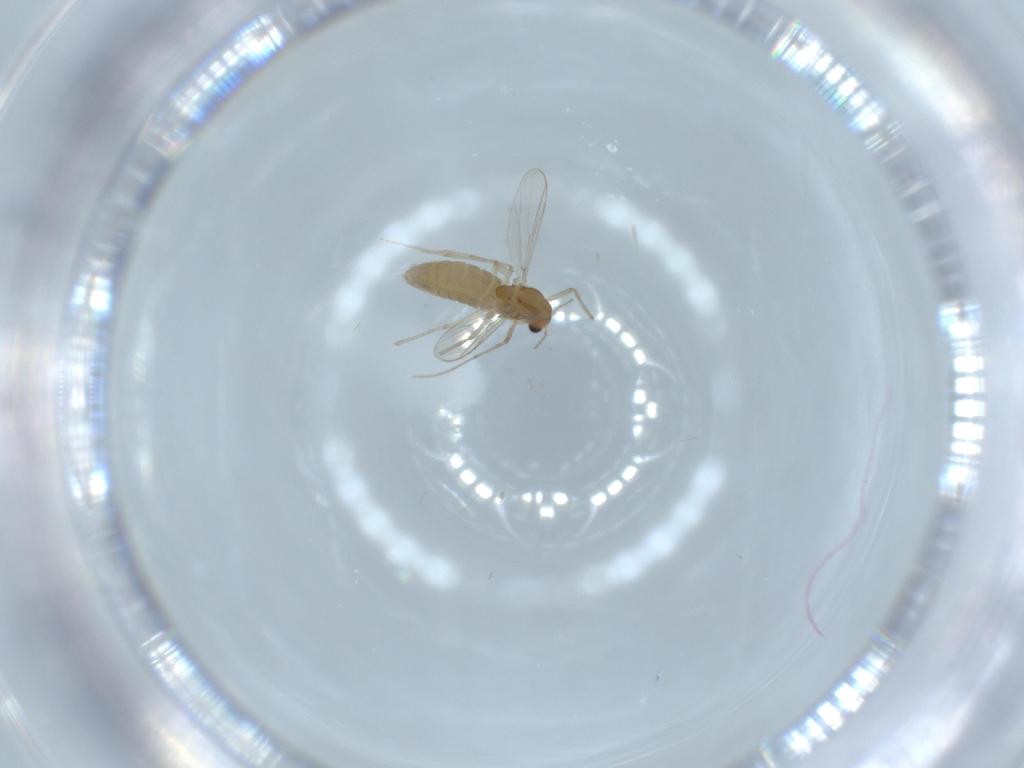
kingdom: Animalia
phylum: Arthropoda
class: Insecta
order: Diptera
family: Chironomidae
